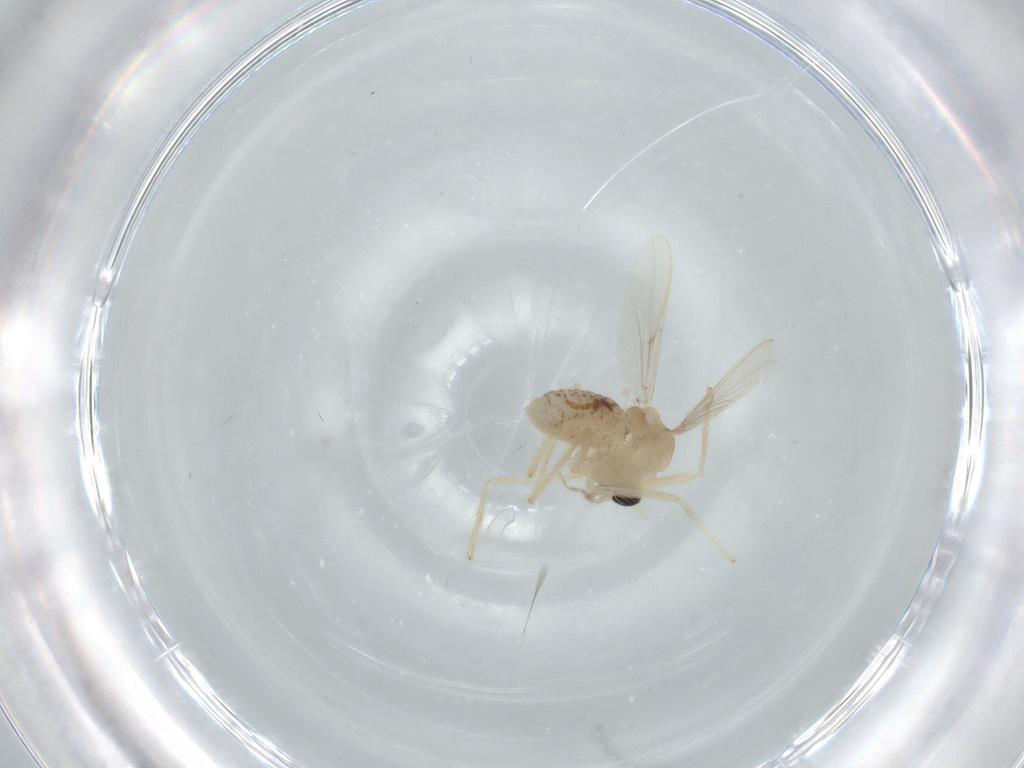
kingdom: Animalia
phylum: Arthropoda
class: Insecta
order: Diptera
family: Chironomidae
